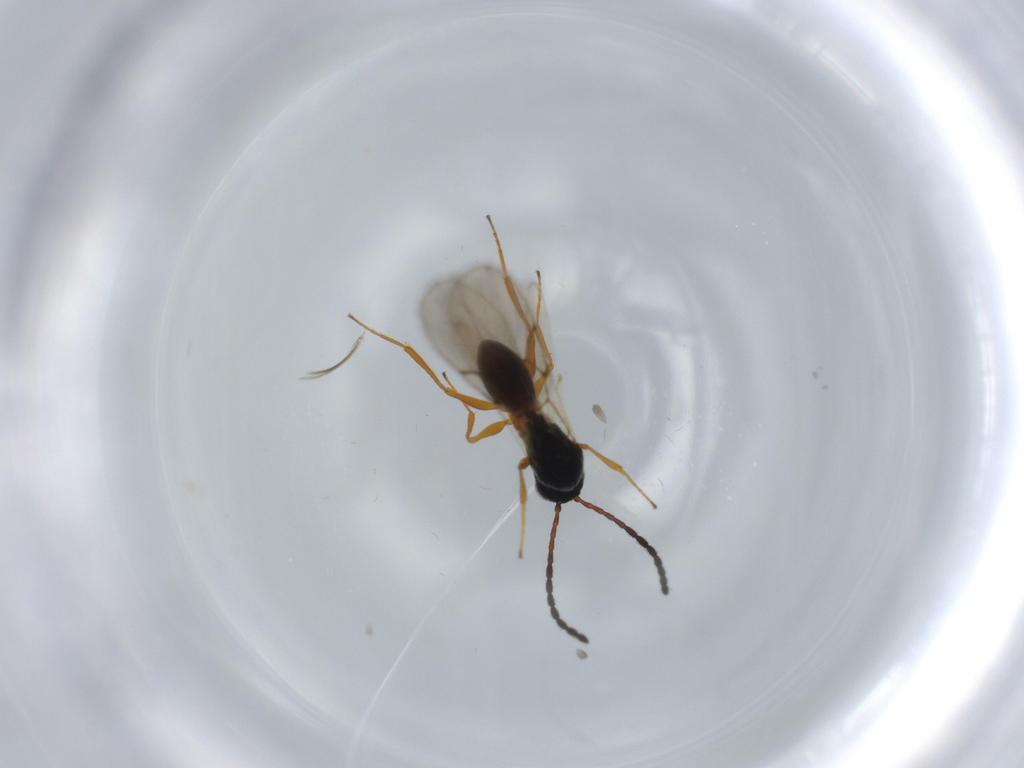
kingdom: Animalia
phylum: Arthropoda
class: Insecta
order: Hymenoptera
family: Figitidae
